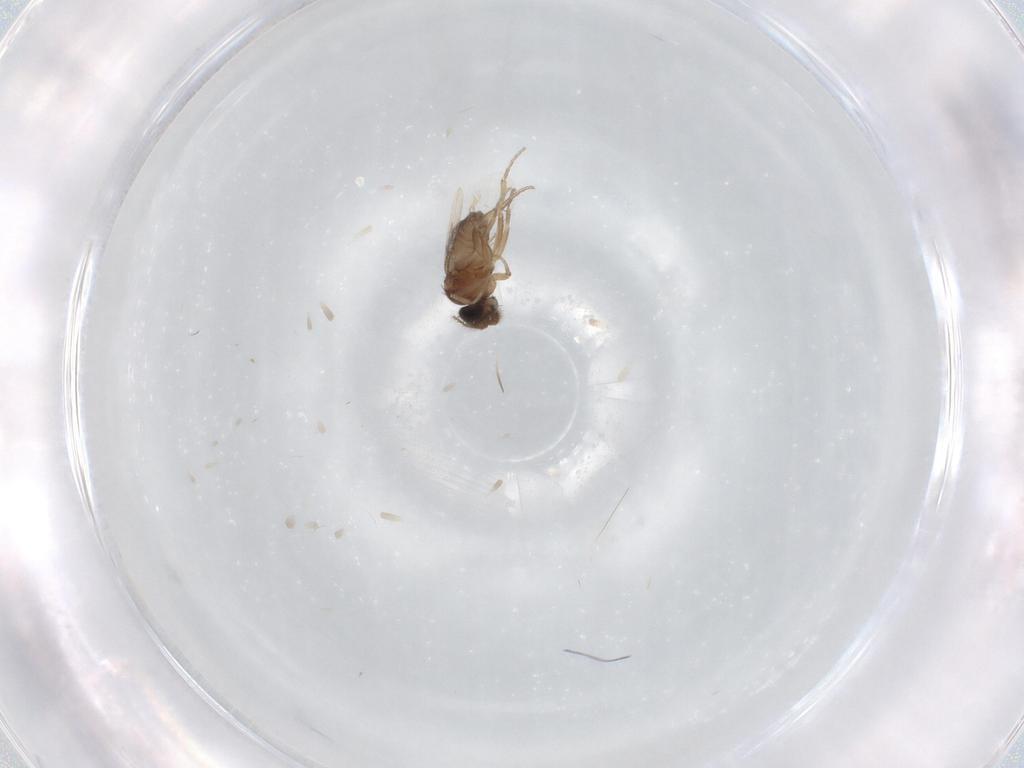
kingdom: Animalia
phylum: Arthropoda
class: Insecta
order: Diptera
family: Phoridae
